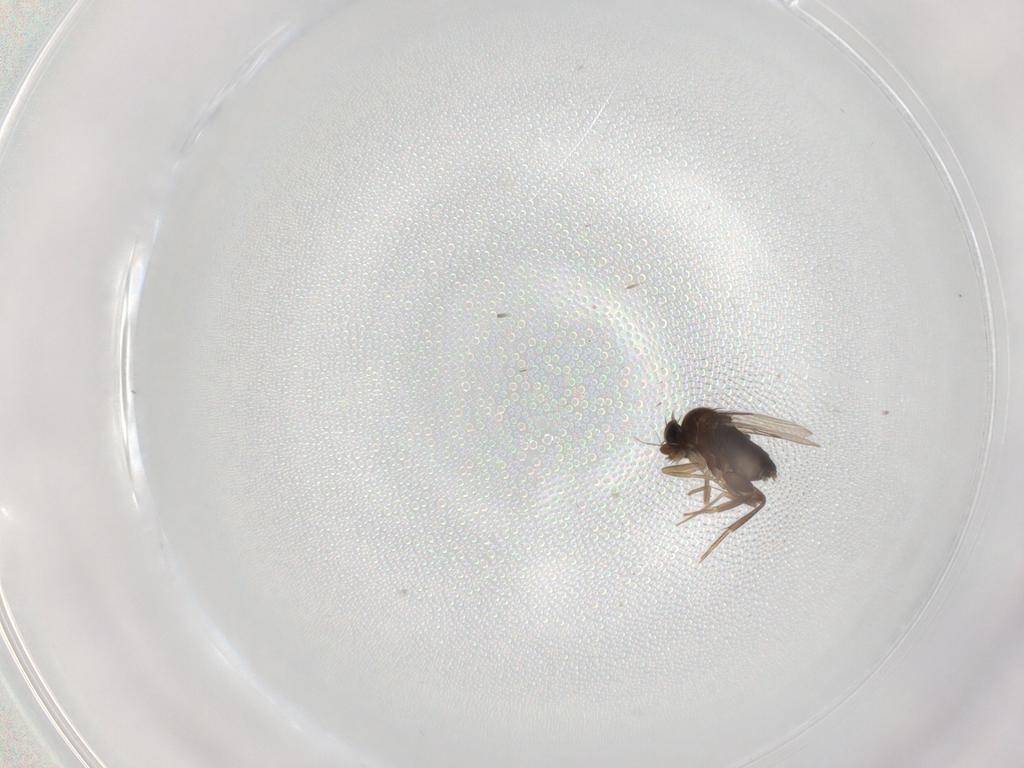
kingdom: Animalia
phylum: Arthropoda
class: Insecta
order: Diptera
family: Phoridae
